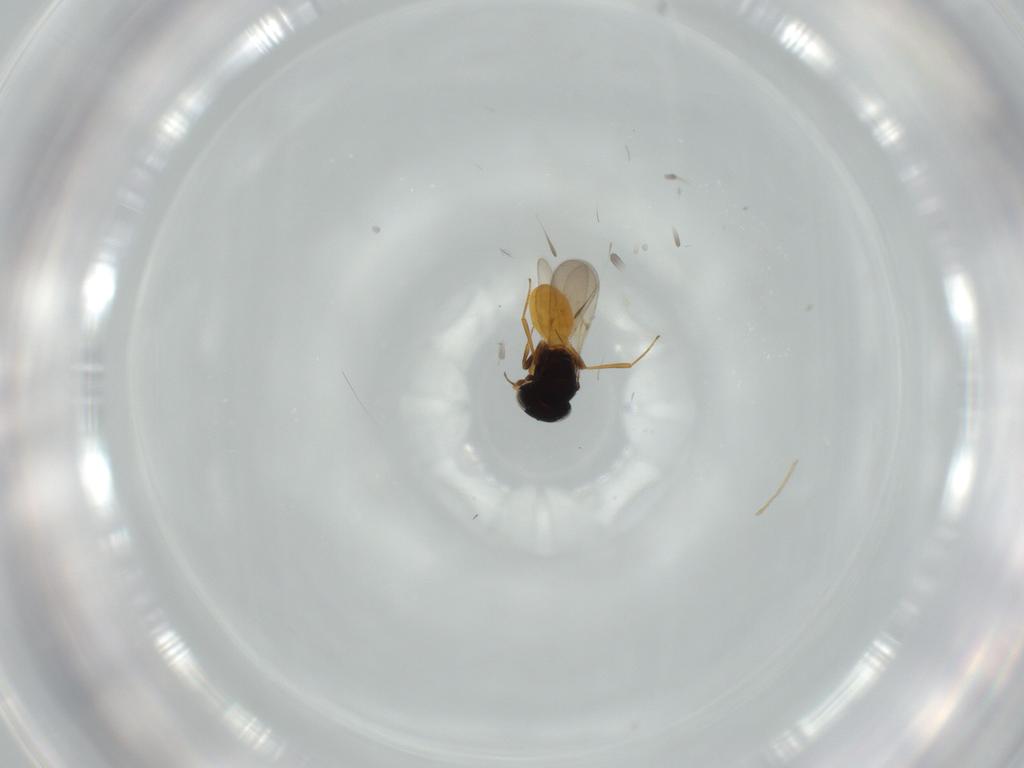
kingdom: Animalia
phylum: Arthropoda
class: Insecta
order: Hymenoptera
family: Scelionidae
